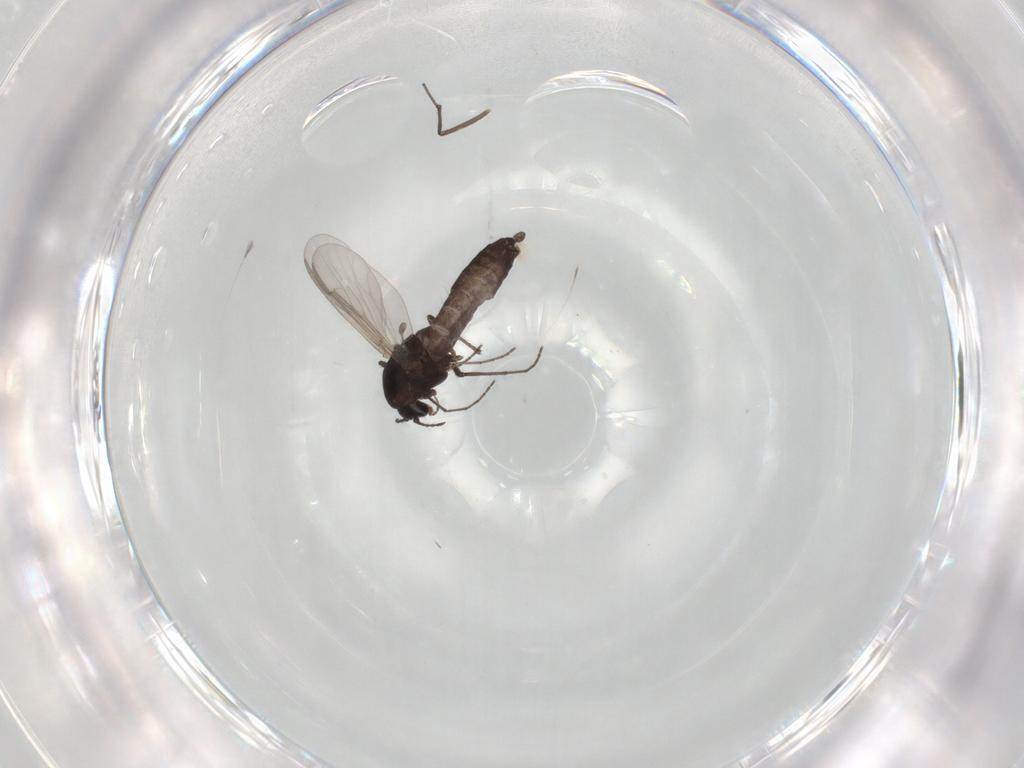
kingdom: Animalia
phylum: Arthropoda
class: Insecta
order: Diptera
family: Chironomidae
